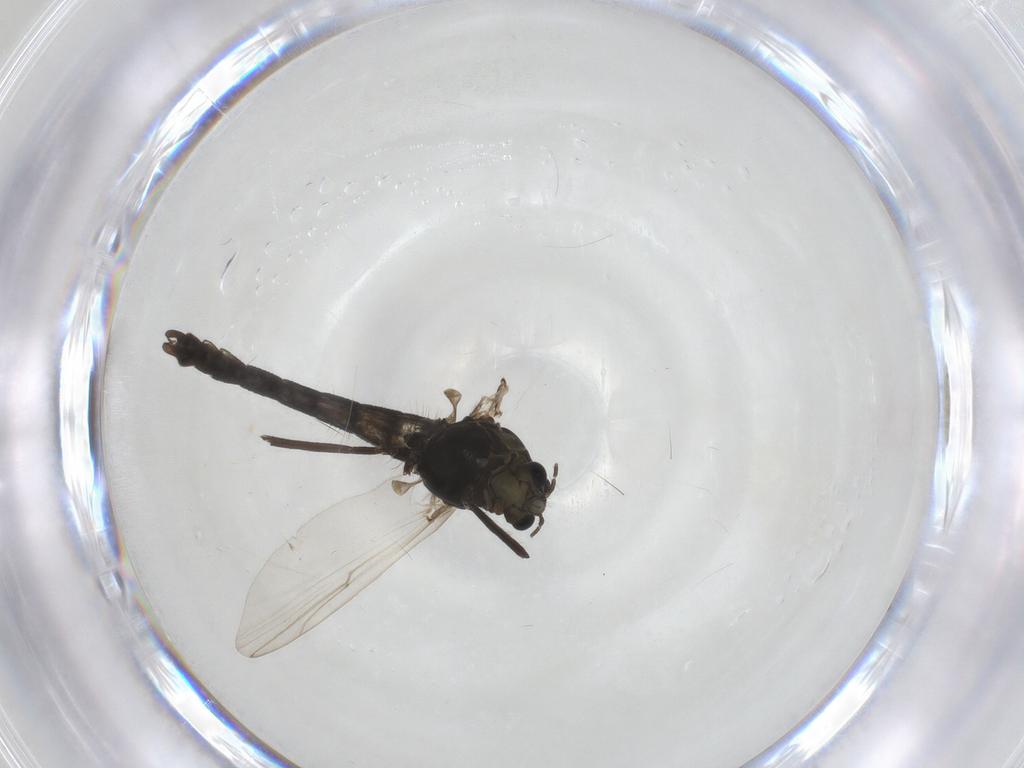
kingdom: Animalia
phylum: Arthropoda
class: Insecta
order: Diptera
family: Chironomidae
